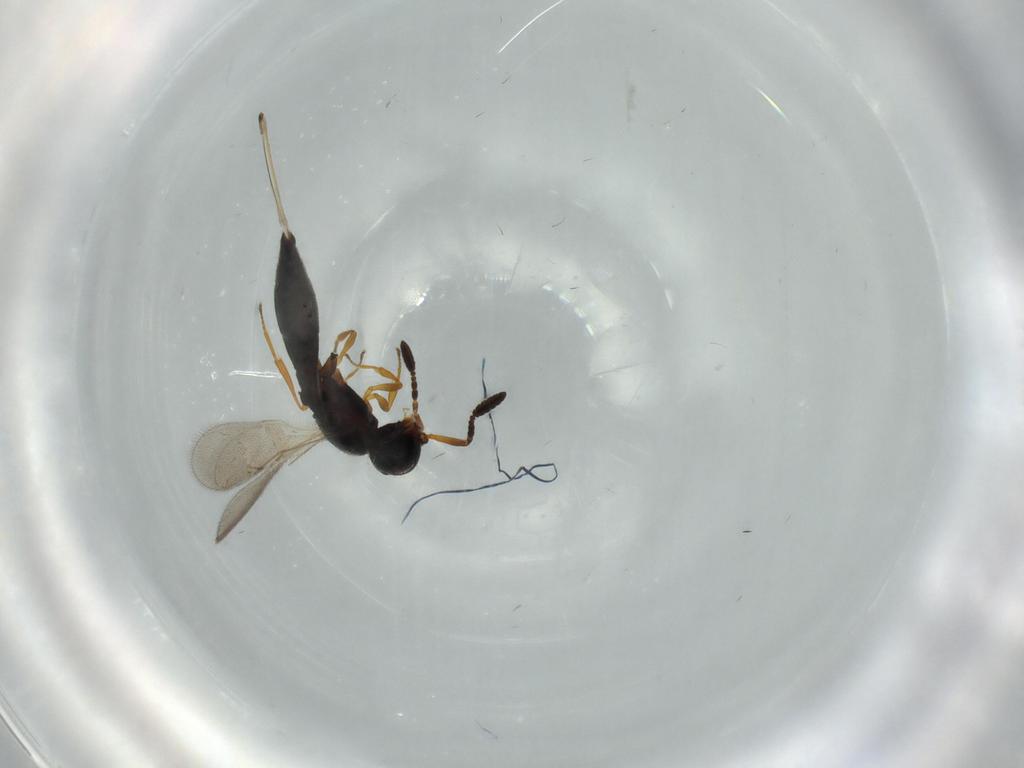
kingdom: Animalia
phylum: Arthropoda
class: Insecta
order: Hymenoptera
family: Scelionidae
